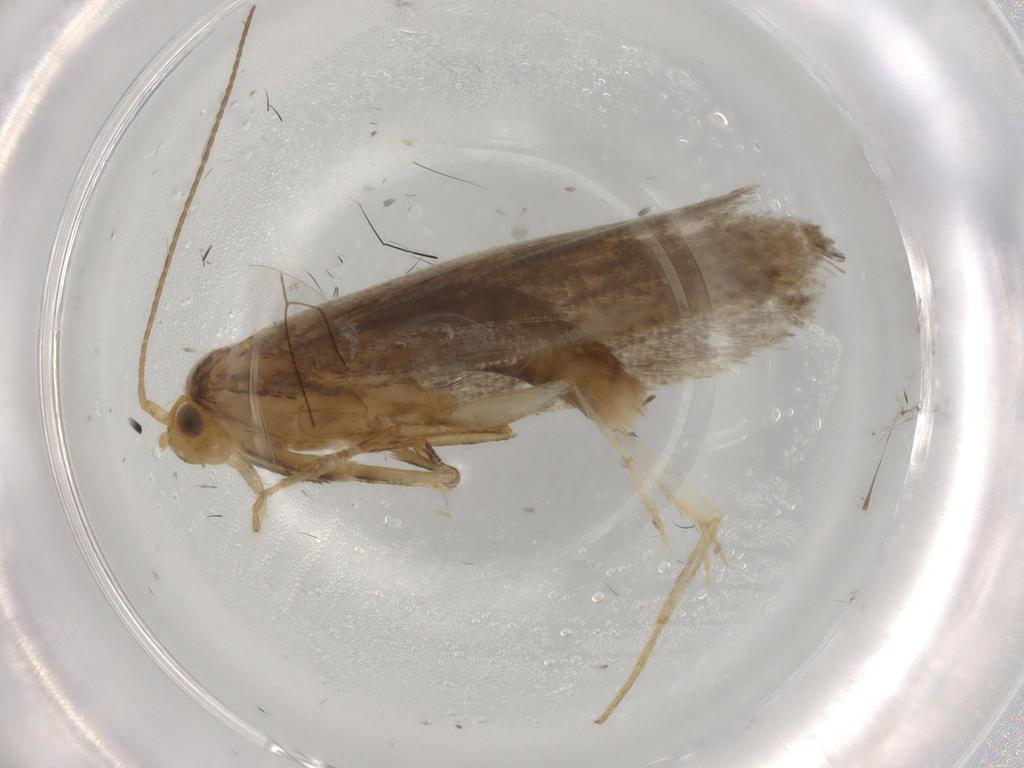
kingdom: Animalia
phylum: Arthropoda
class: Insecta
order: Lepidoptera
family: Argyresthiidae
